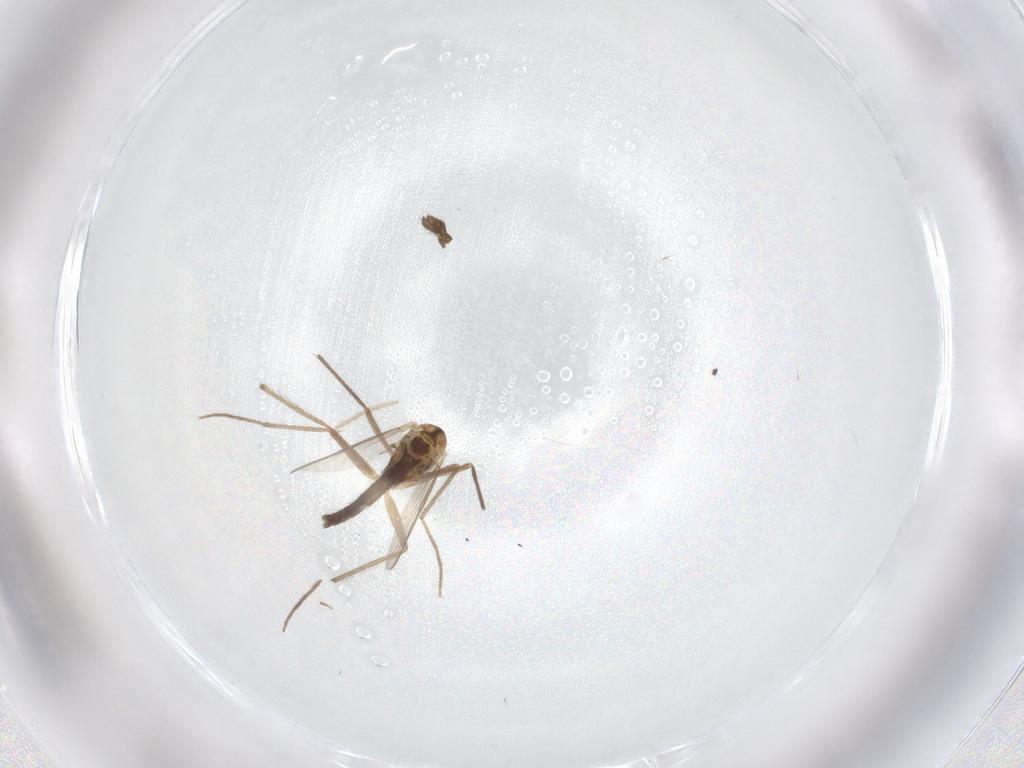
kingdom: Animalia
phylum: Arthropoda
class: Insecta
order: Diptera
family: Chironomidae
